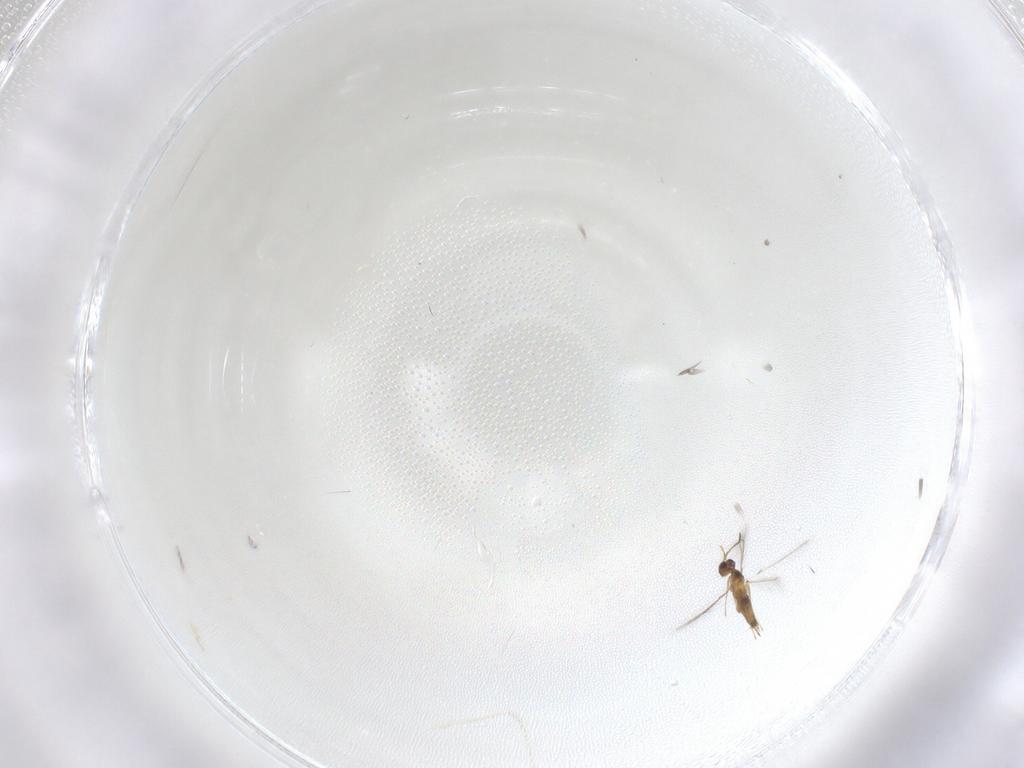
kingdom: Animalia
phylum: Arthropoda
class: Insecta
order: Hymenoptera
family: Mymaridae
